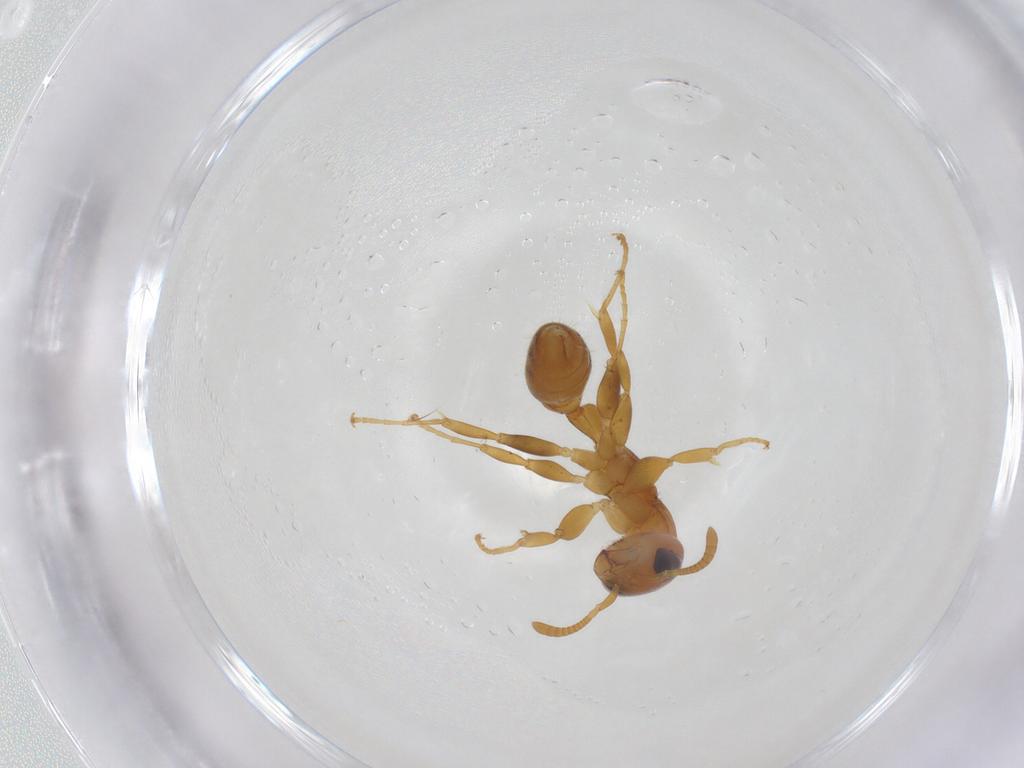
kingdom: Animalia
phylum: Arthropoda
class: Insecta
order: Hymenoptera
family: Formicidae
